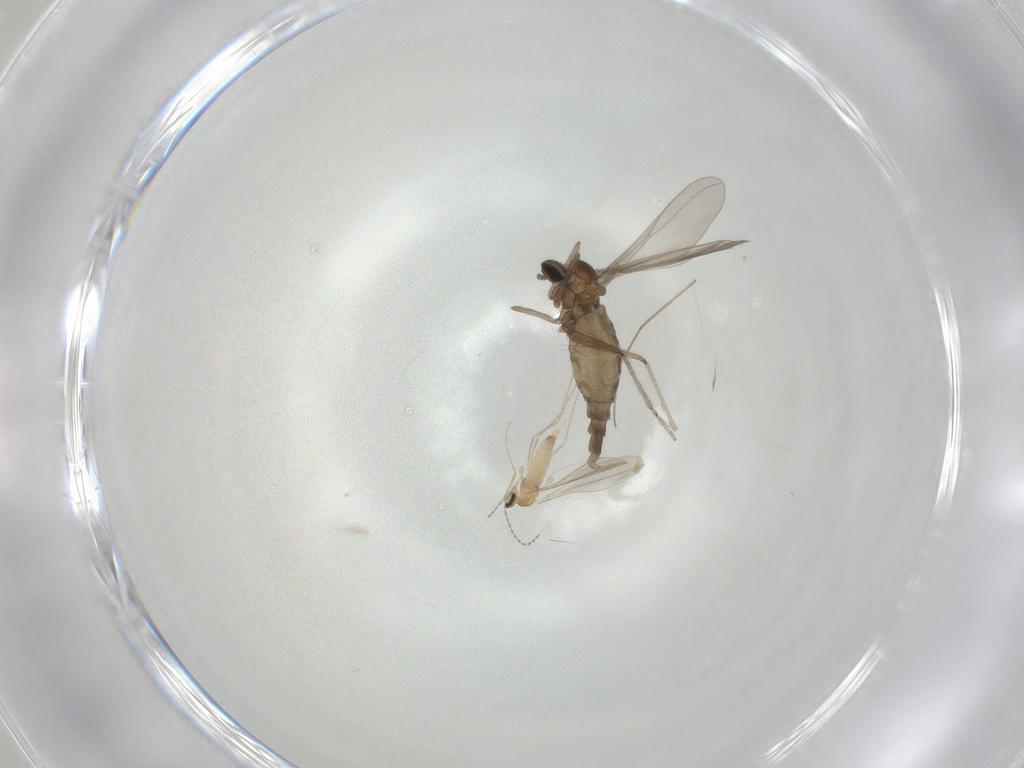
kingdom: Animalia
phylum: Arthropoda
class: Insecta
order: Diptera
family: Cecidomyiidae
